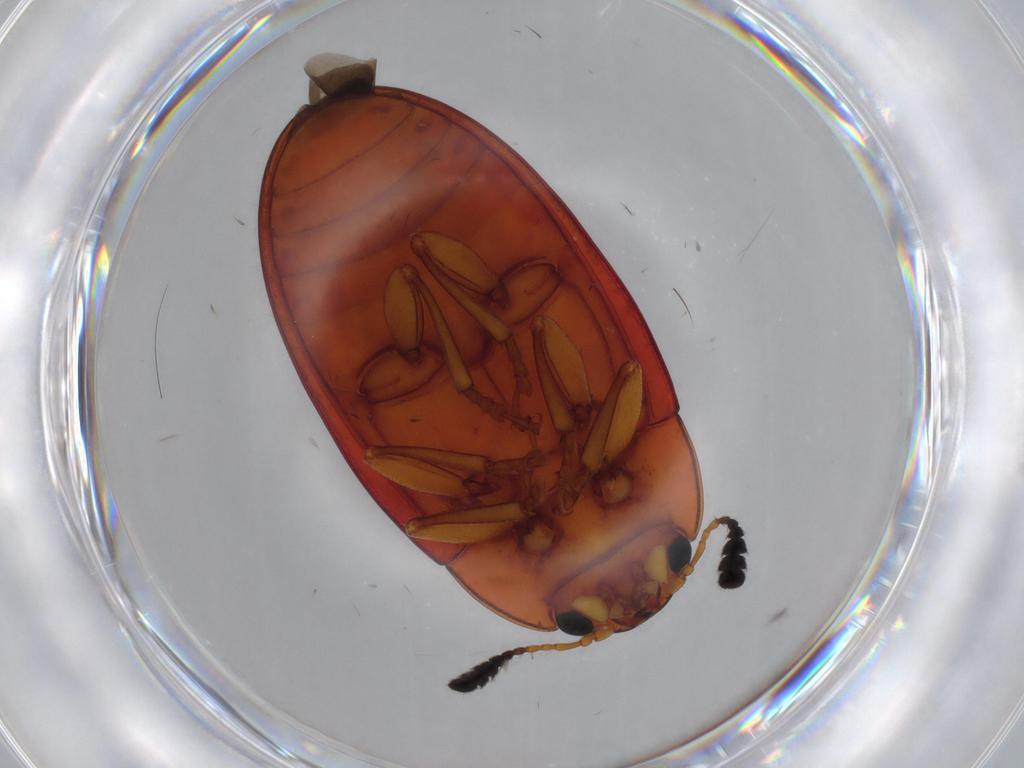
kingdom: Animalia
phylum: Arthropoda
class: Insecta
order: Coleoptera
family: Erotylidae
